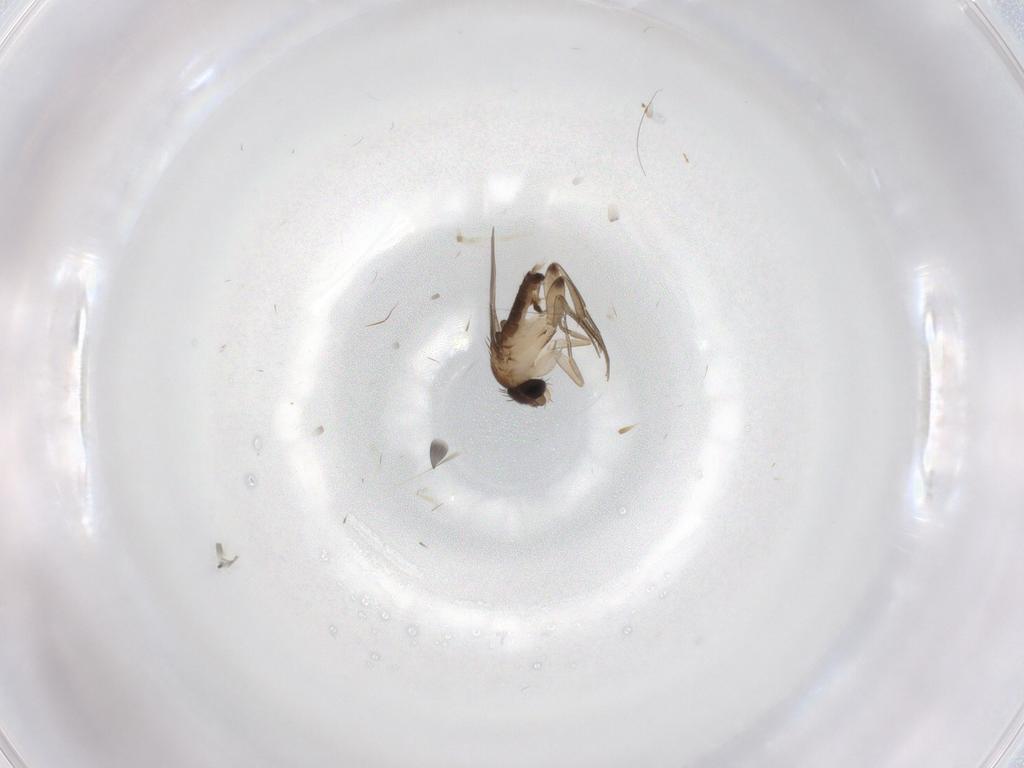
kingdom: Animalia
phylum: Arthropoda
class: Insecta
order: Diptera
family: Phoridae
